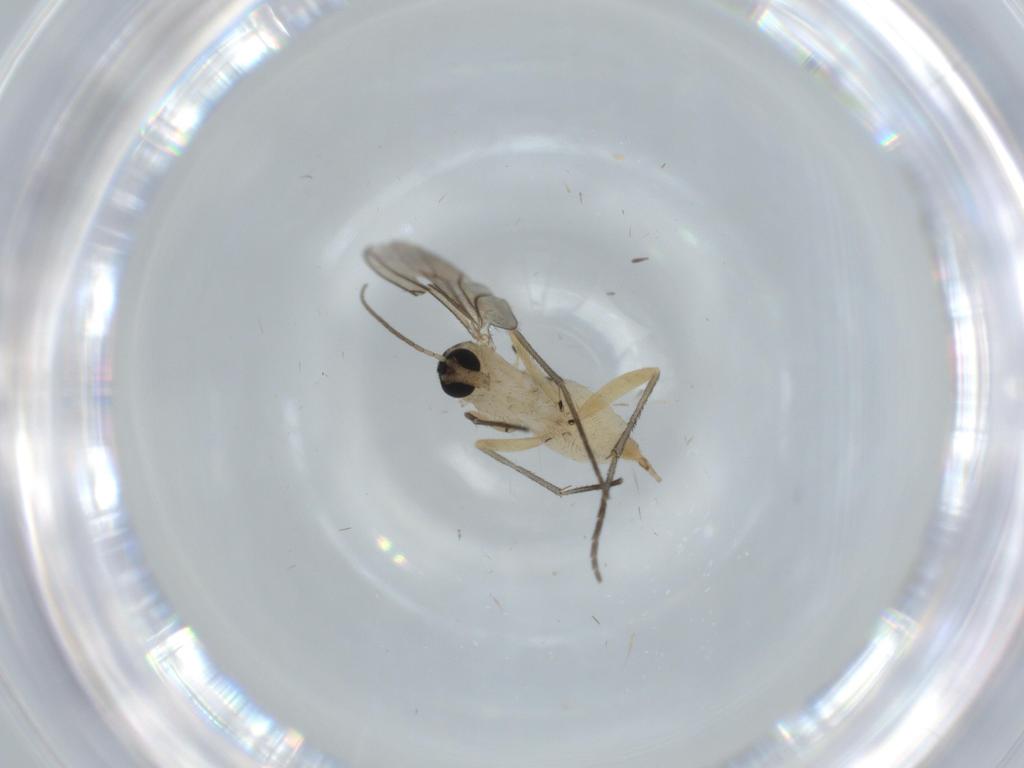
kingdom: Animalia
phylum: Arthropoda
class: Insecta
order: Diptera
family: Sciaridae
